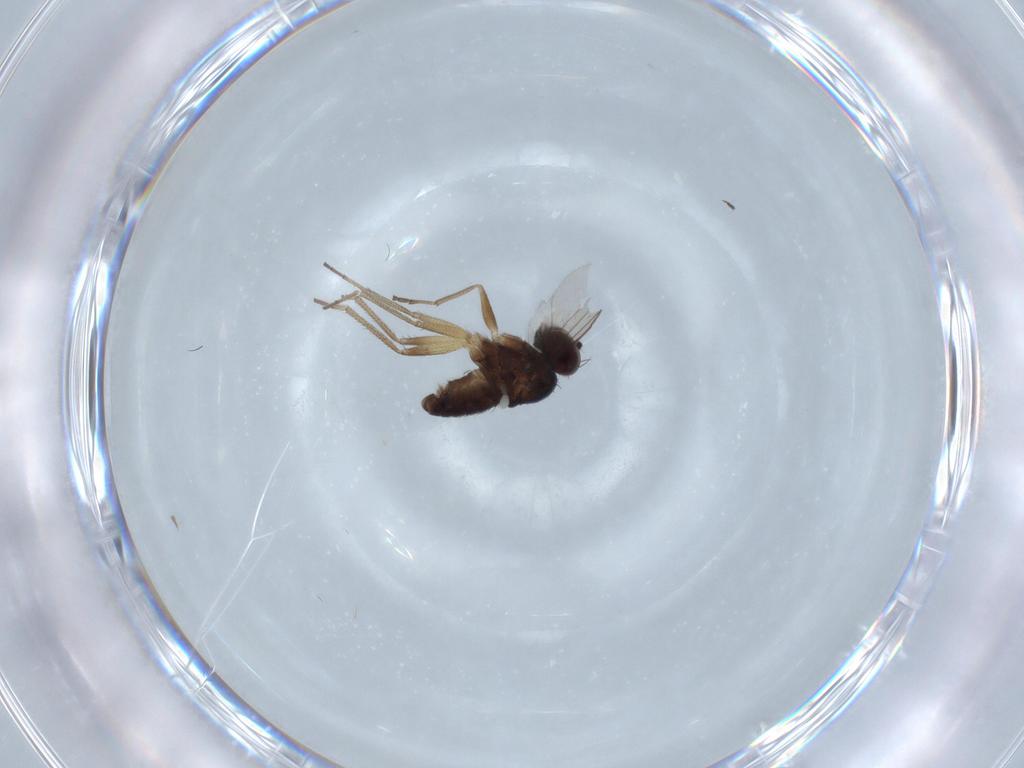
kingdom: Animalia
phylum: Arthropoda
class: Insecta
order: Diptera
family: Dolichopodidae
